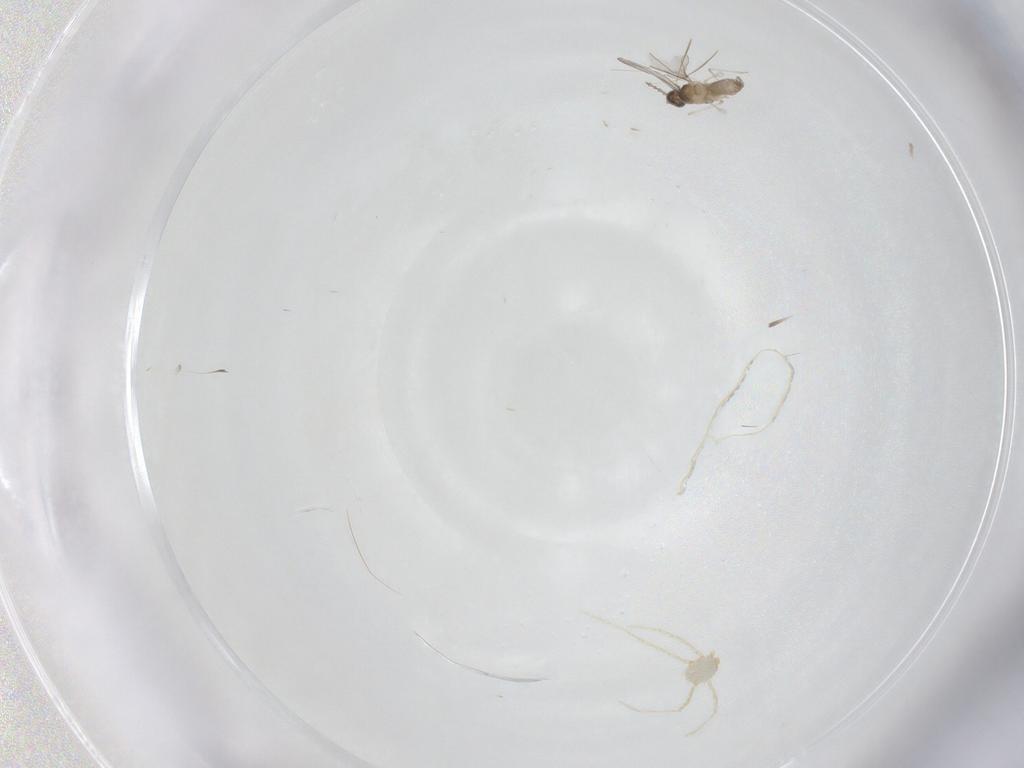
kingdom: Animalia
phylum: Arthropoda
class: Arachnida
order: Trombidiformes
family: Erythraeidae
